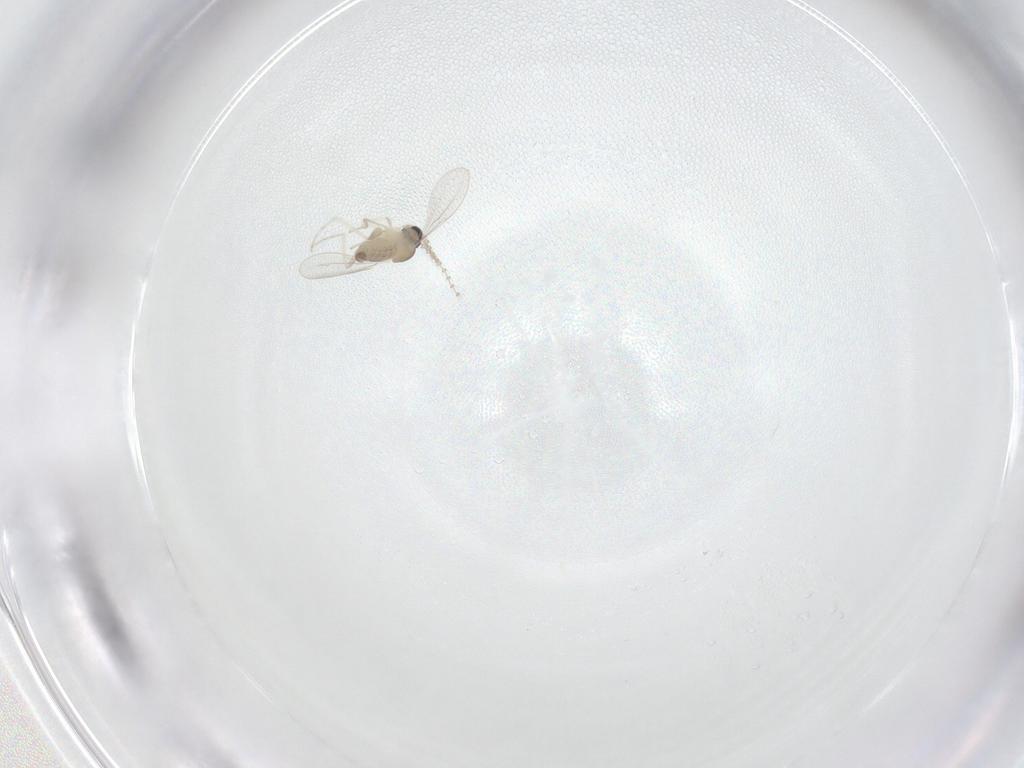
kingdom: Animalia
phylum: Arthropoda
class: Insecta
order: Diptera
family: Cecidomyiidae
